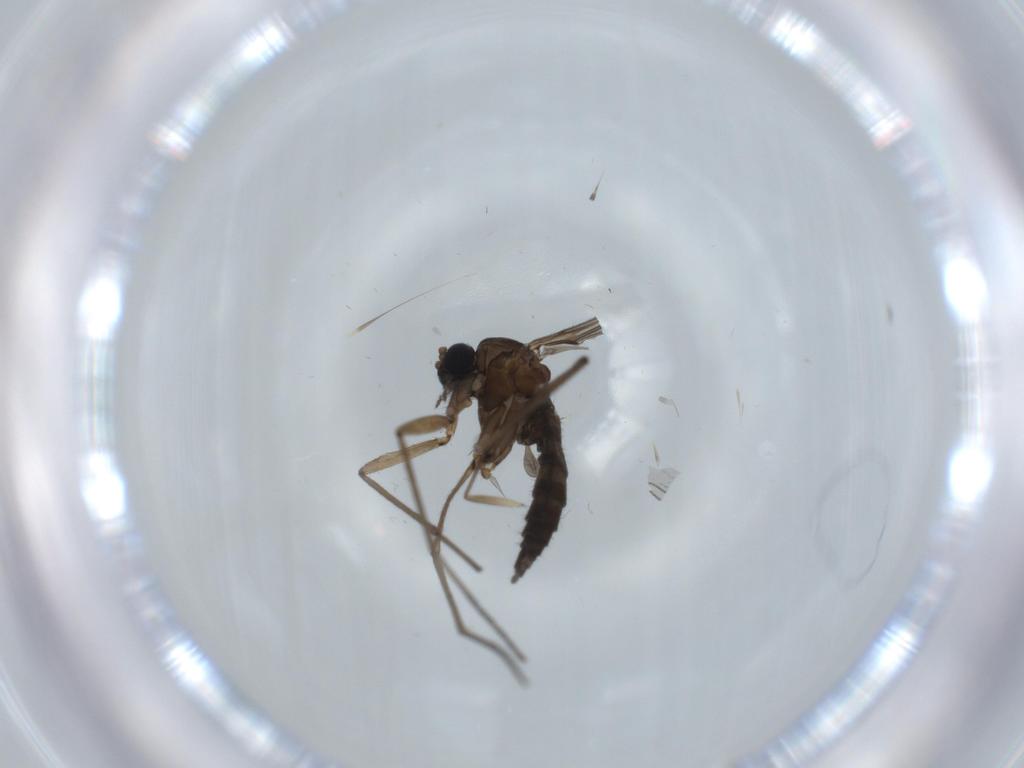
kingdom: Animalia
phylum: Arthropoda
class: Insecta
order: Diptera
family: Sciaridae
